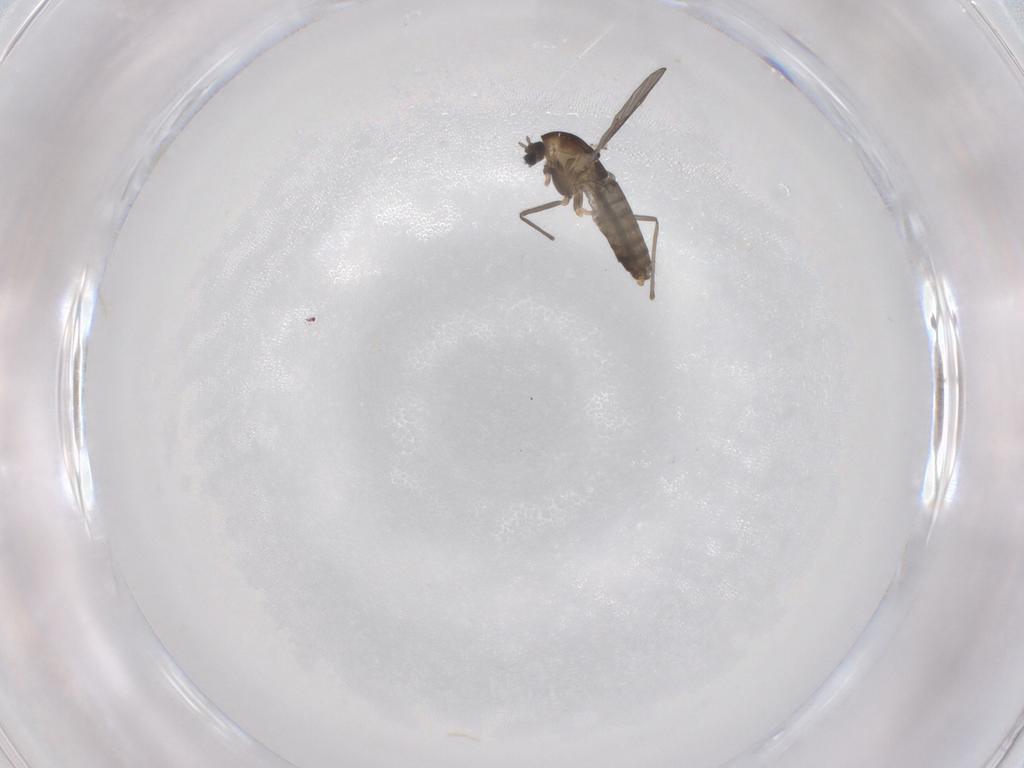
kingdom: Animalia
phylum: Arthropoda
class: Insecta
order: Diptera
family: Chironomidae
